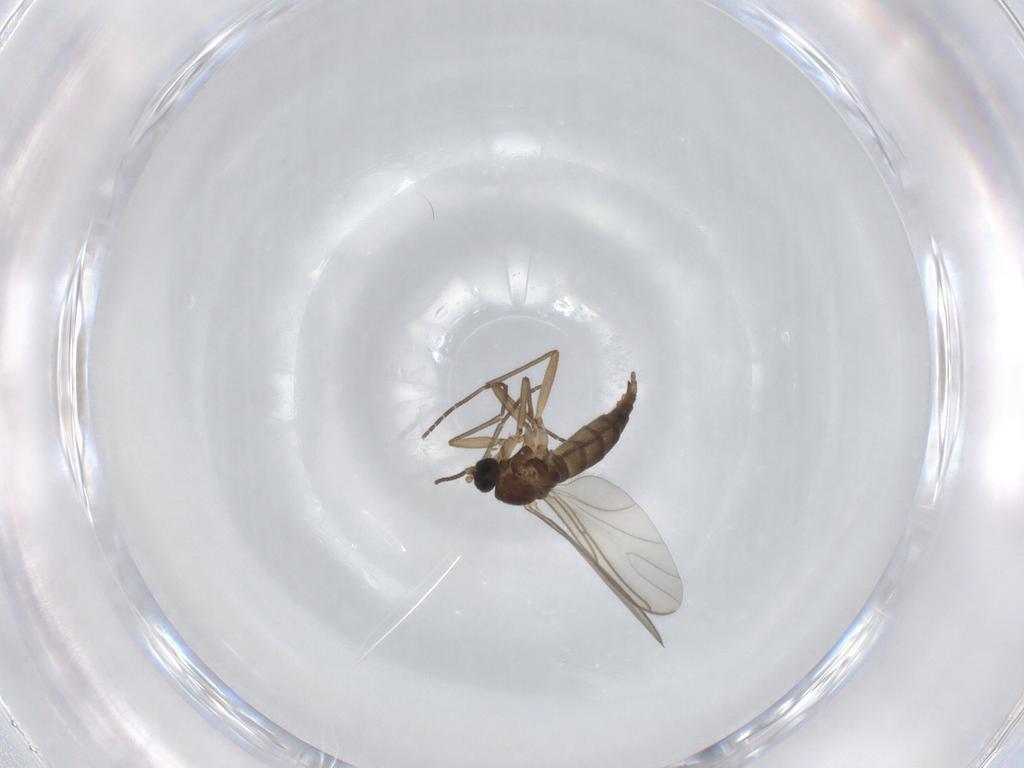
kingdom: Animalia
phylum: Arthropoda
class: Insecta
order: Diptera
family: Sciaridae
